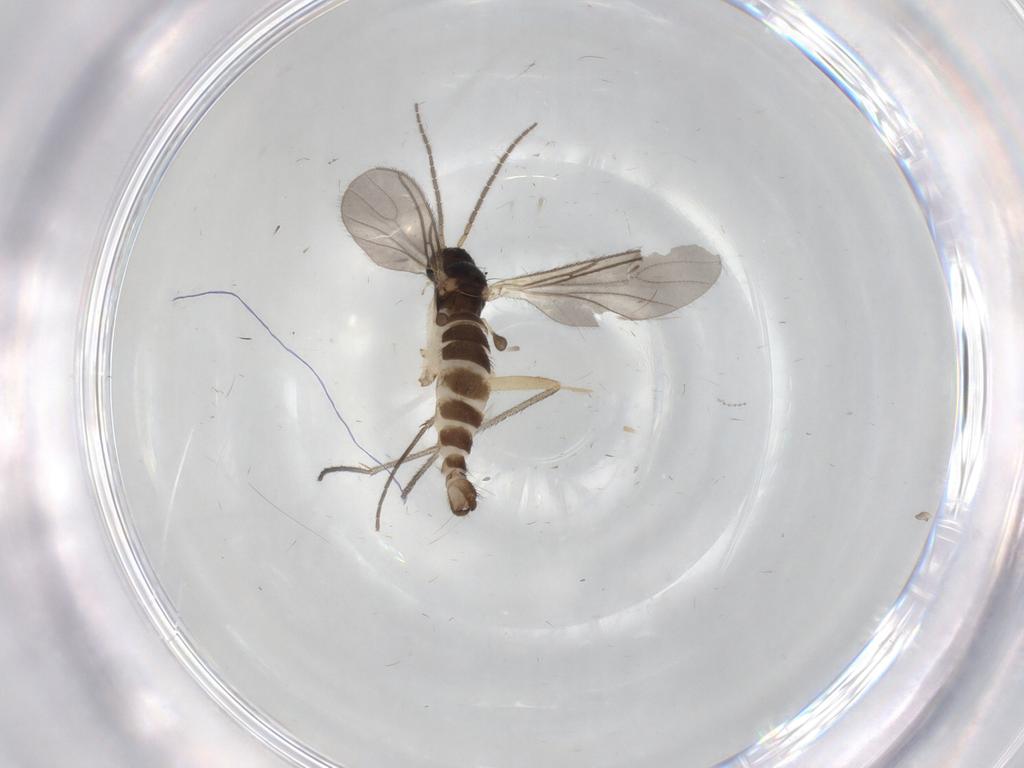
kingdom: Animalia
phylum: Arthropoda
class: Insecta
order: Diptera
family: Sciaridae
